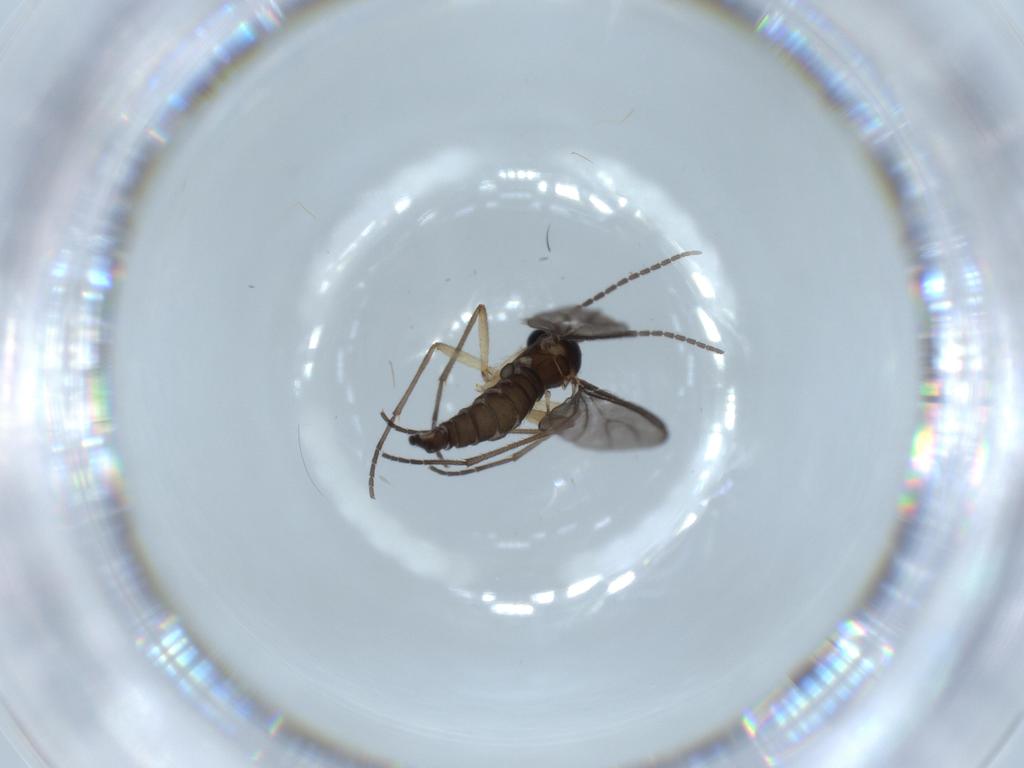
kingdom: Animalia
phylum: Arthropoda
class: Insecta
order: Diptera
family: Sciaridae
